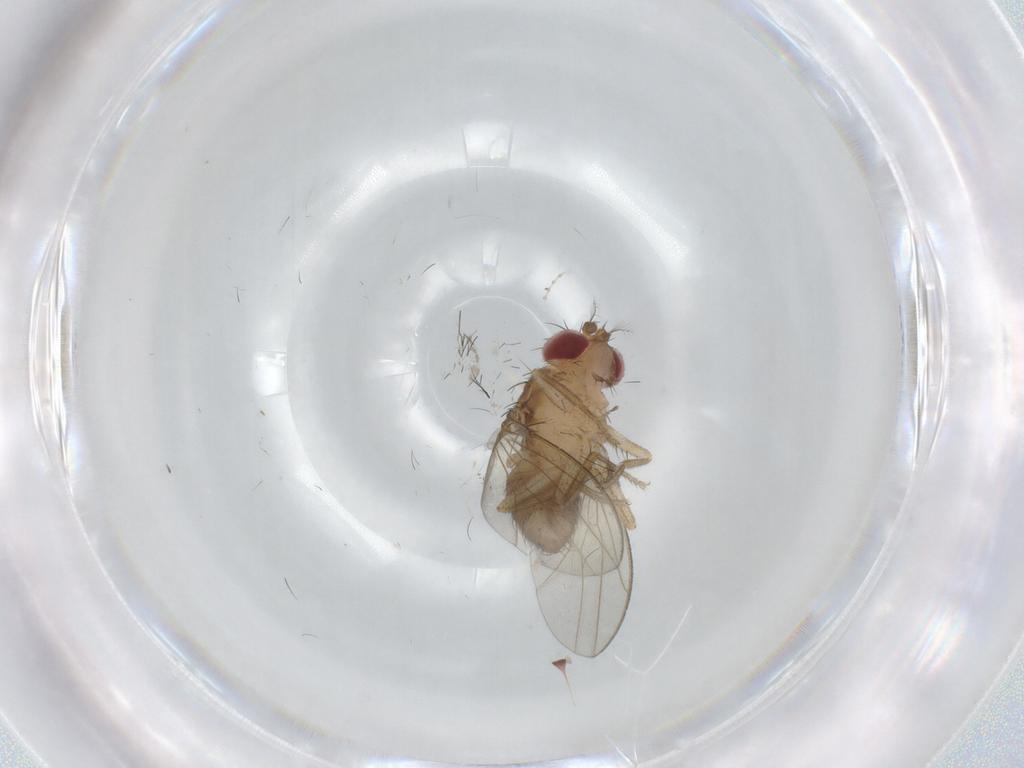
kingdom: Animalia
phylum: Arthropoda
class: Insecta
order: Diptera
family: Drosophilidae
